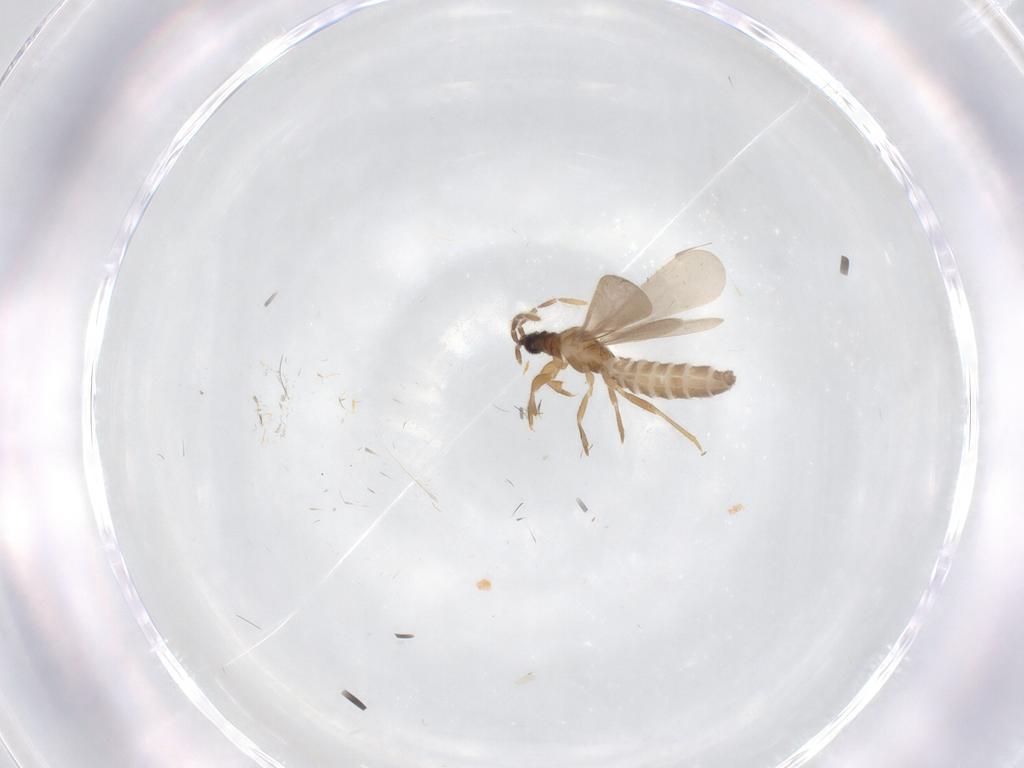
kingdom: Animalia
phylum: Arthropoda
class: Insecta
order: Hemiptera
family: Enicocephalidae
